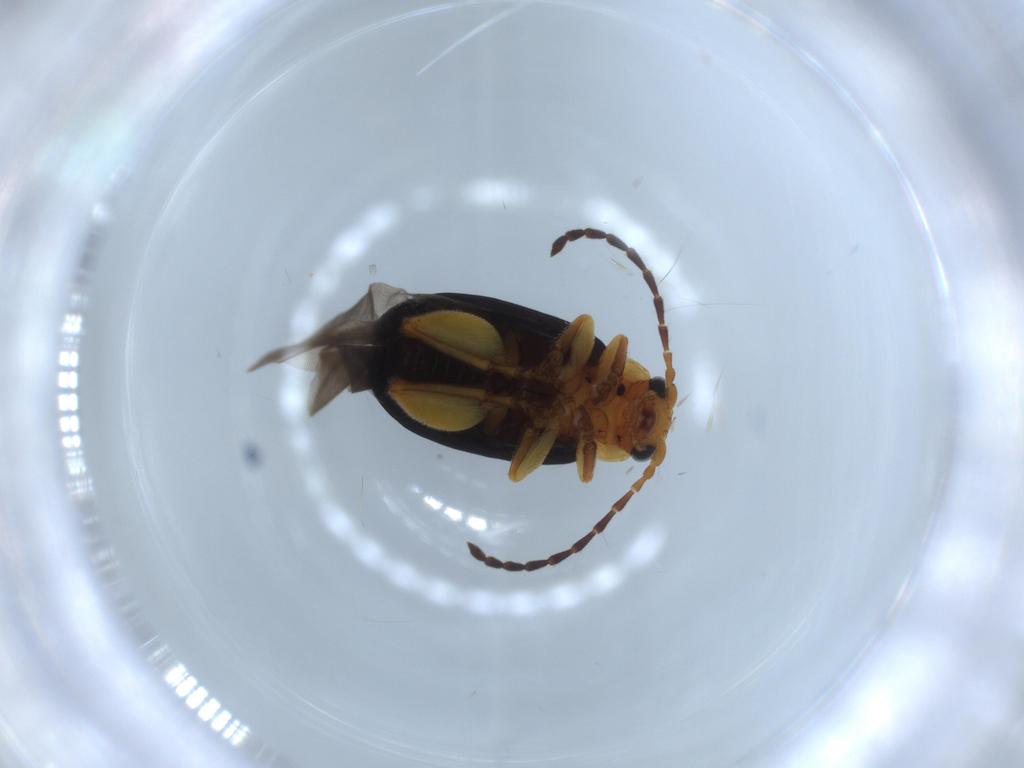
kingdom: Animalia
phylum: Arthropoda
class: Insecta
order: Coleoptera
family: Chrysomelidae
